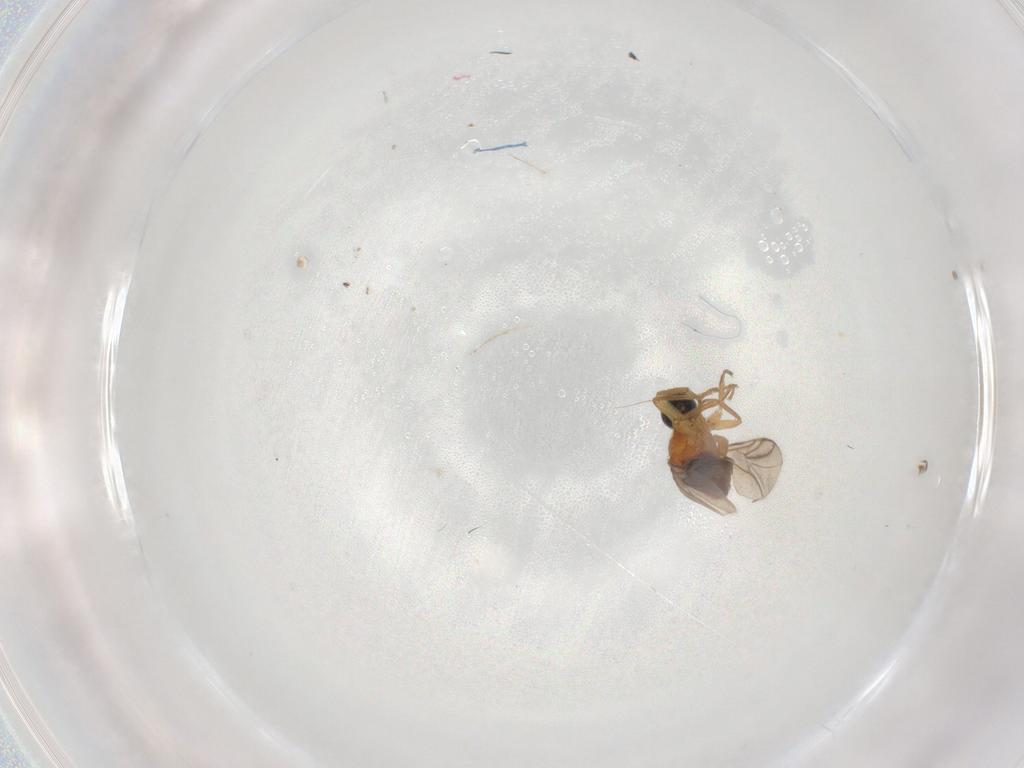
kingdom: Animalia
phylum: Arthropoda
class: Insecta
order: Diptera
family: Hybotidae
